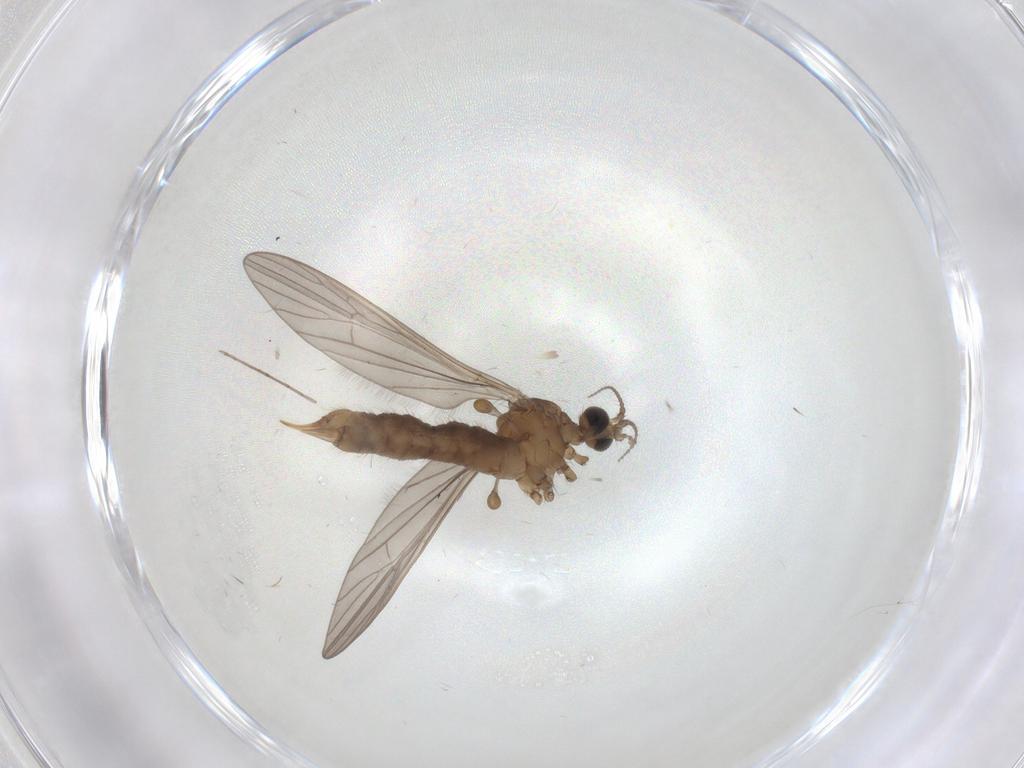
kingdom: Animalia
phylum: Arthropoda
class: Insecta
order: Diptera
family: Limoniidae
